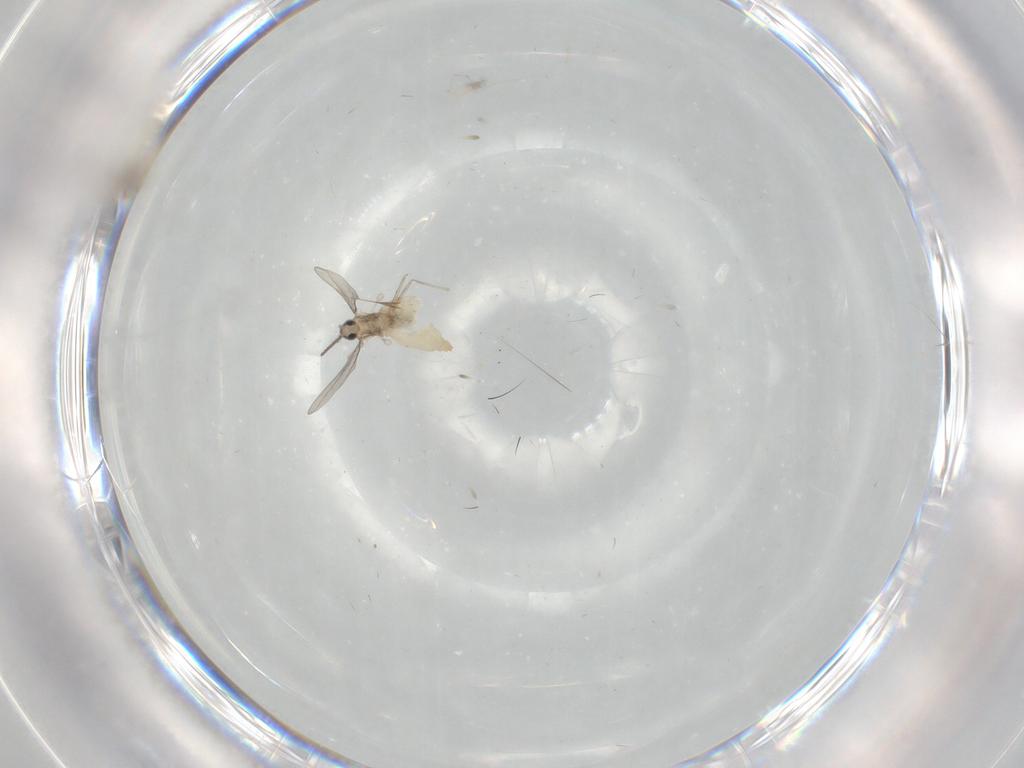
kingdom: Animalia
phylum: Arthropoda
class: Insecta
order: Diptera
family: Cecidomyiidae
